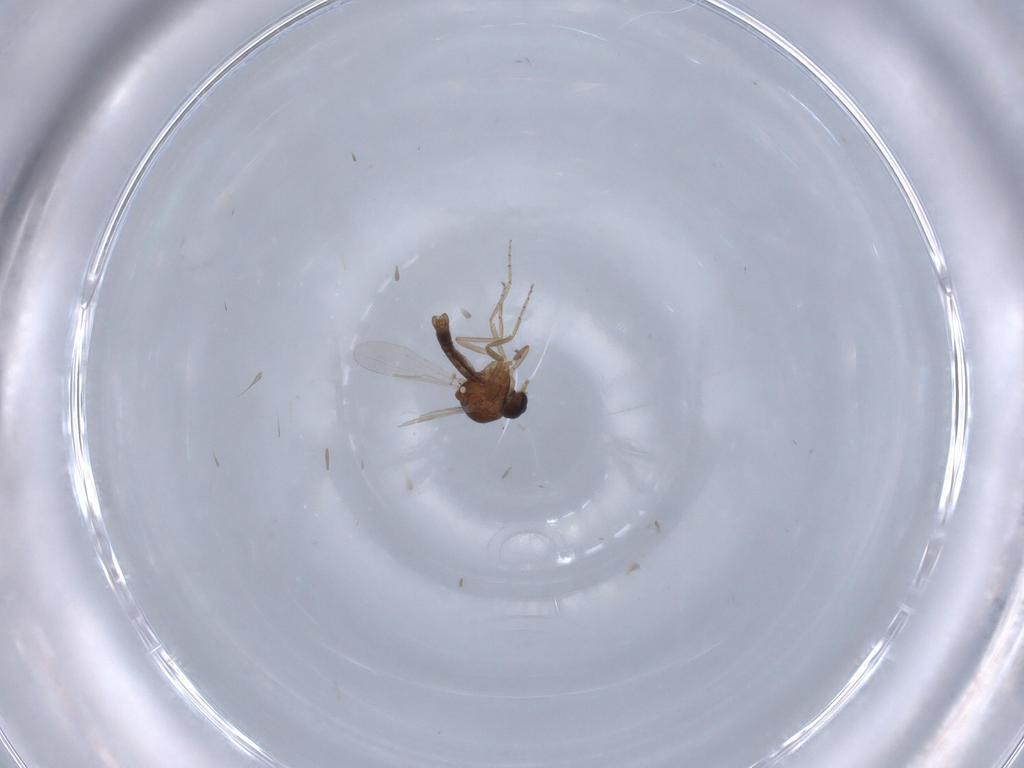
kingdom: Animalia
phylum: Arthropoda
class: Insecta
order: Diptera
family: Ceratopogonidae
